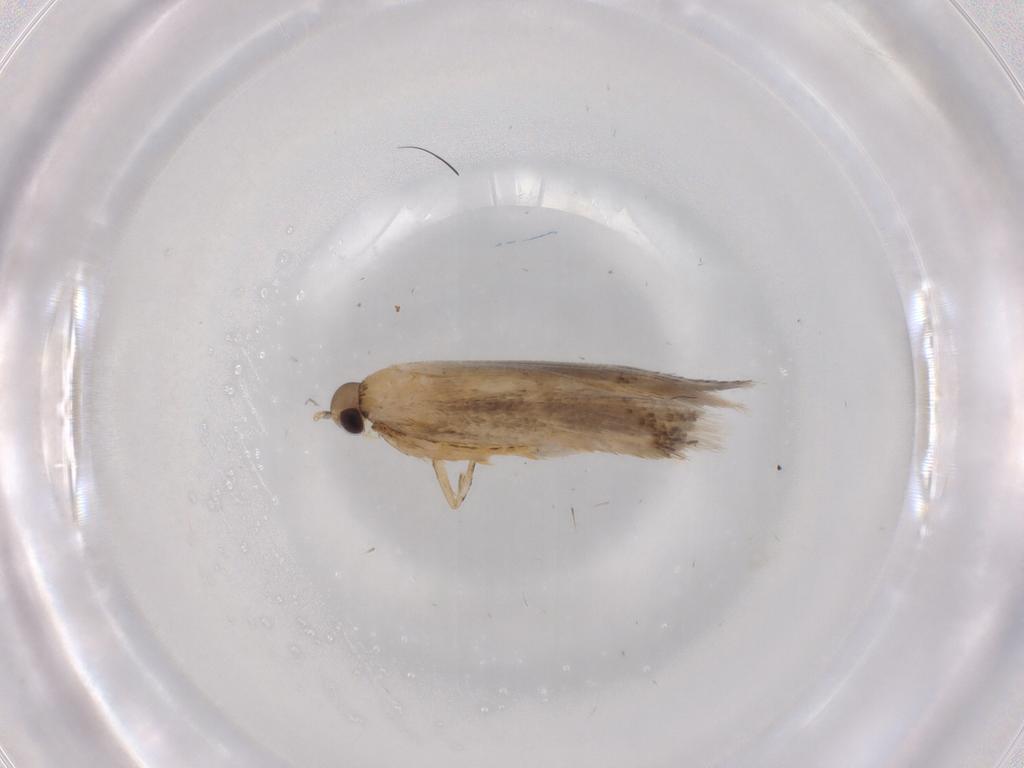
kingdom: Animalia
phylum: Arthropoda
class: Insecta
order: Lepidoptera
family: Autostichidae
